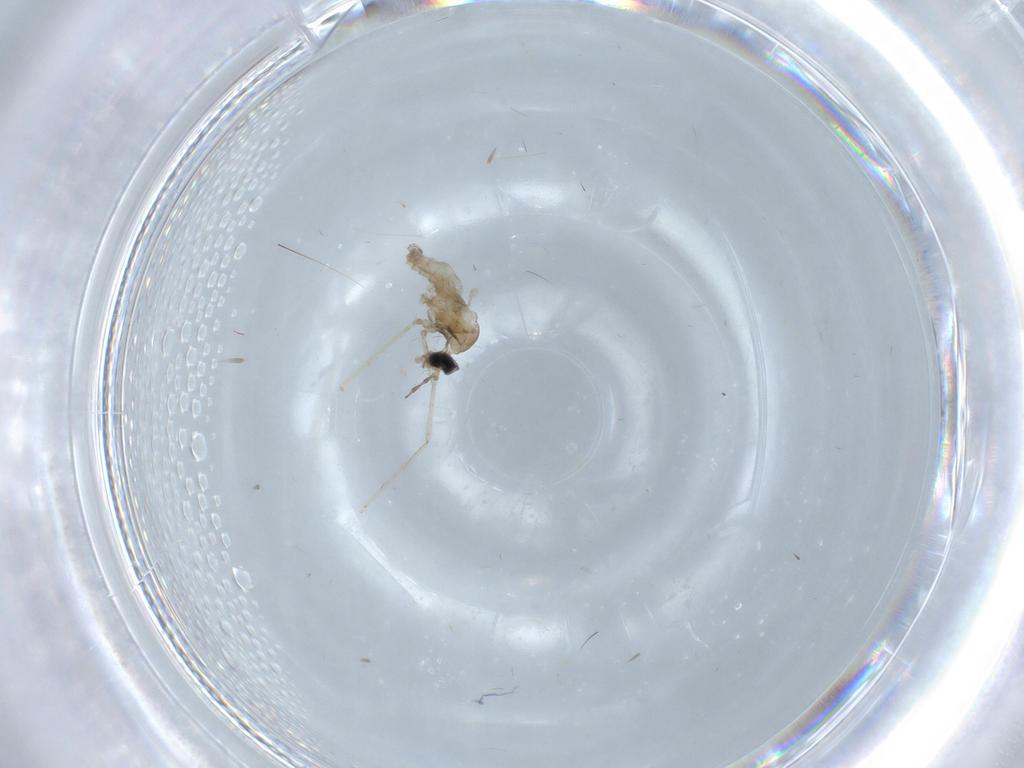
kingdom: Animalia
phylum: Arthropoda
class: Insecta
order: Diptera
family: Cecidomyiidae
